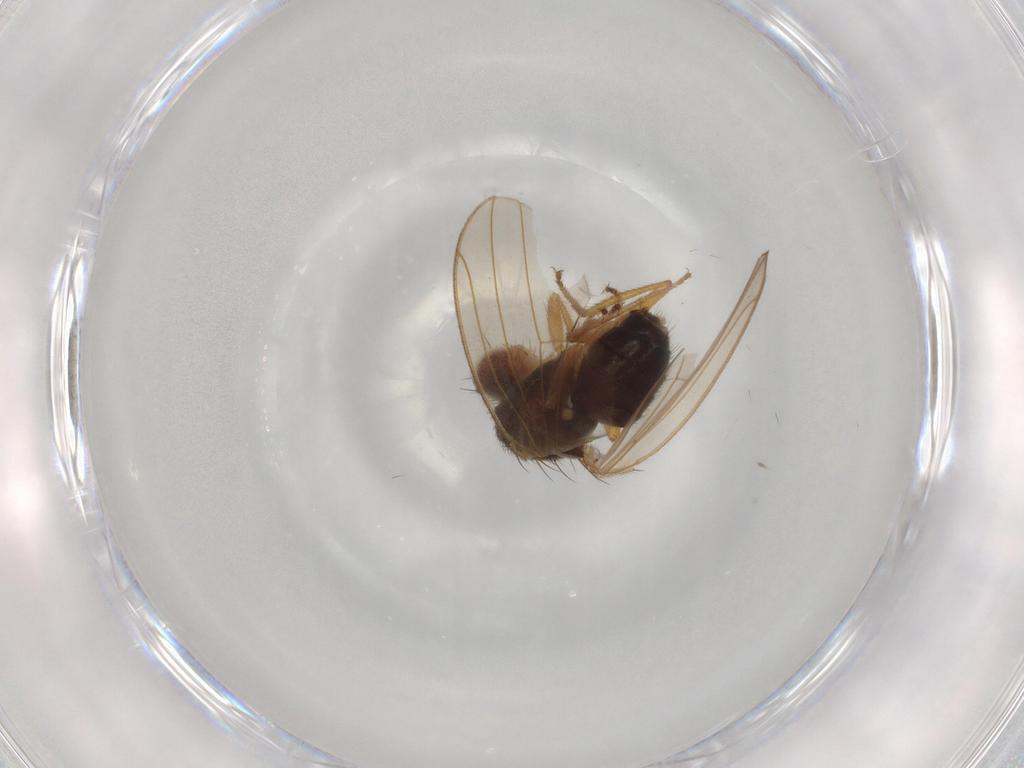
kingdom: Animalia
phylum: Arthropoda
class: Insecta
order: Diptera
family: Drosophilidae
